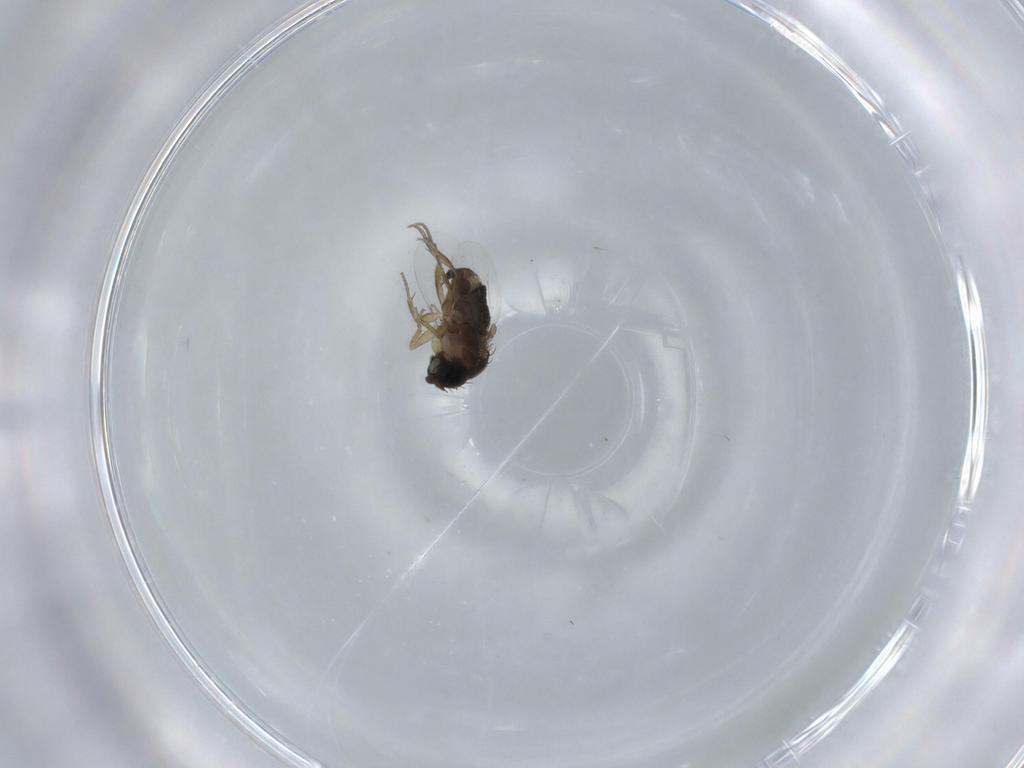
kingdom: Animalia
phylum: Arthropoda
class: Insecta
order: Diptera
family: Phoridae
